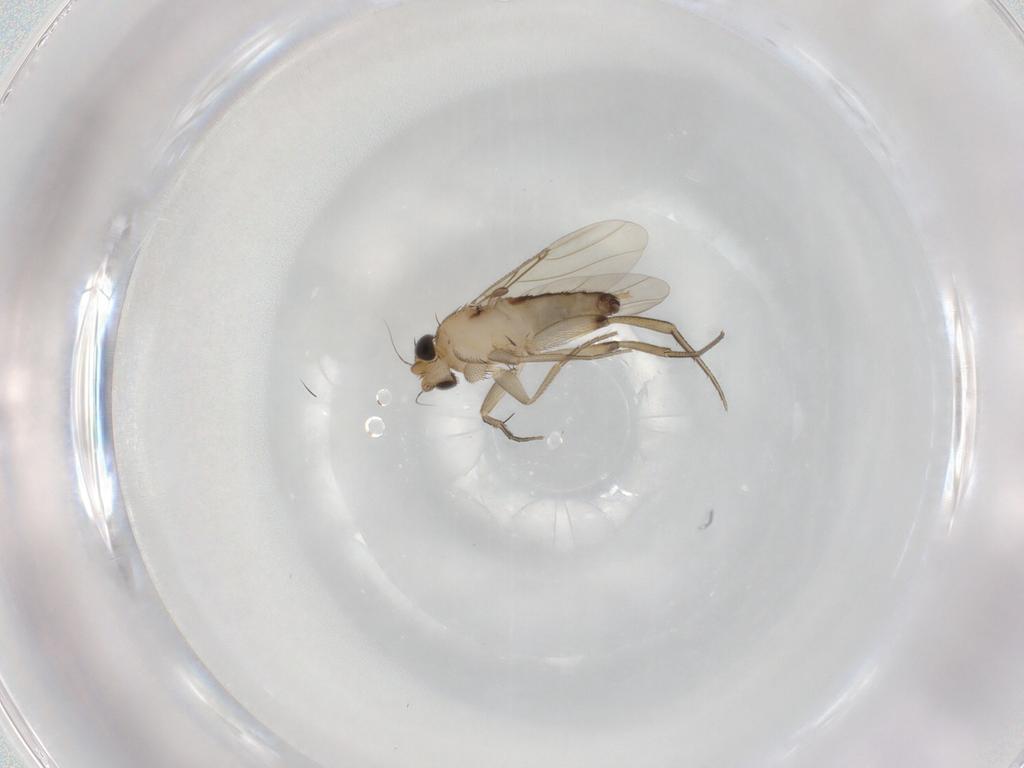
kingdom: Animalia
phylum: Arthropoda
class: Insecta
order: Diptera
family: Phoridae
